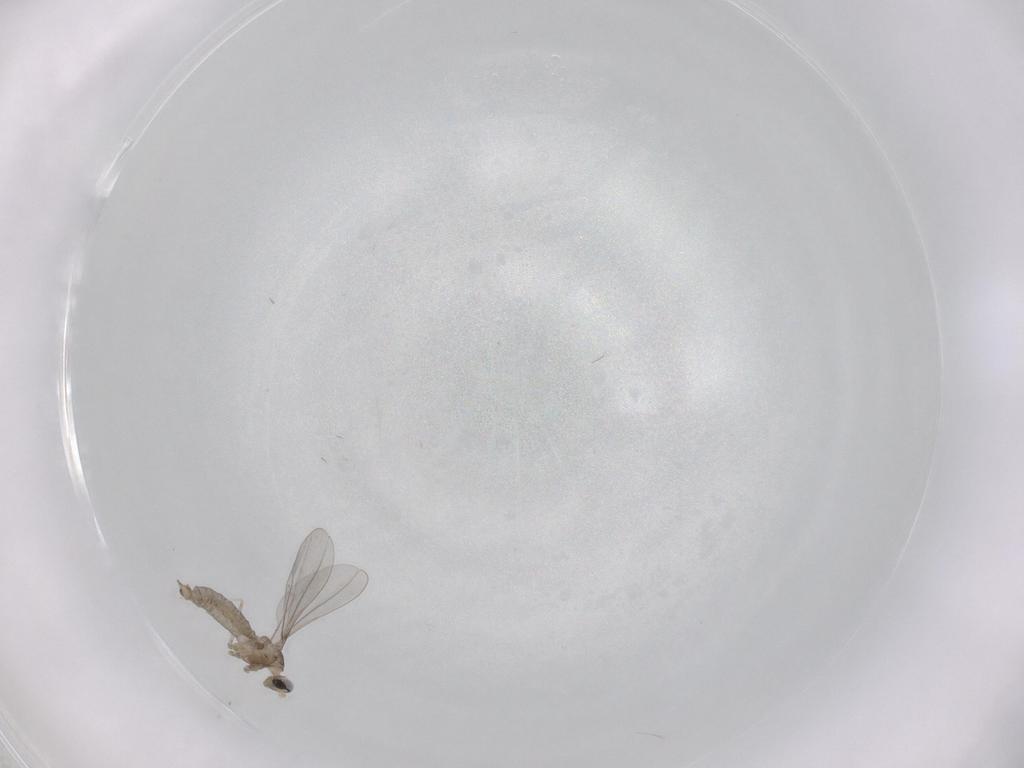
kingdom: Animalia
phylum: Arthropoda
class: Insecta
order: Diptera
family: Cecidomyiidae
